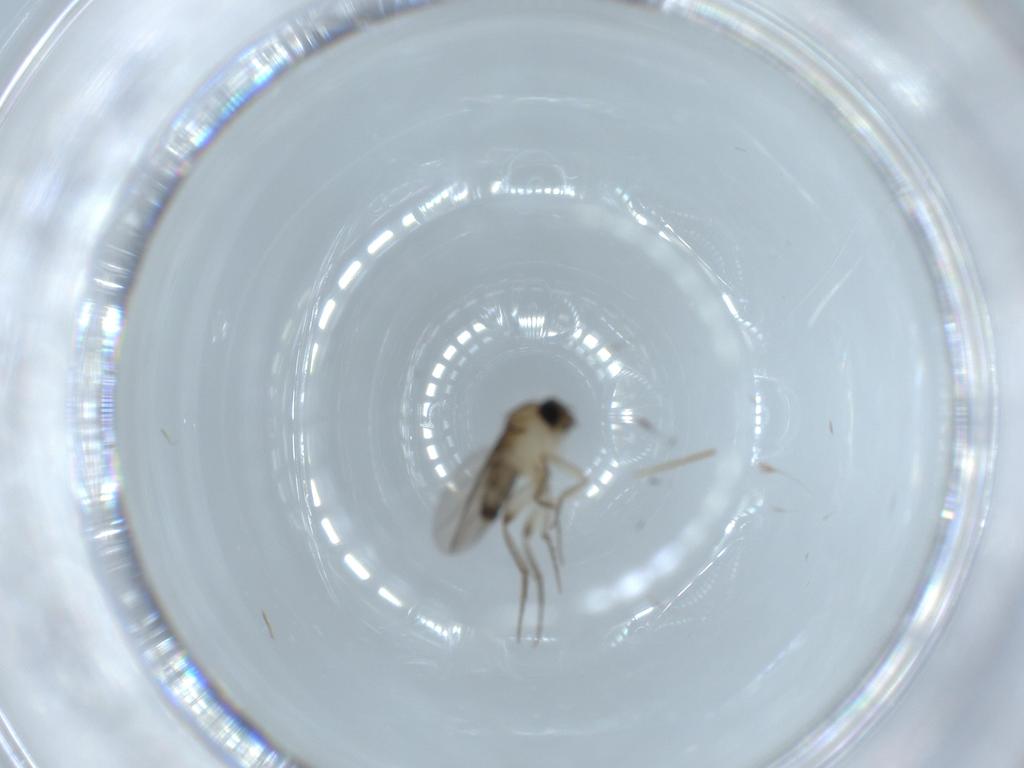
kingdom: Animalia
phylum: Arthropoda
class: Insecta
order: Diptera
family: Phoridae
